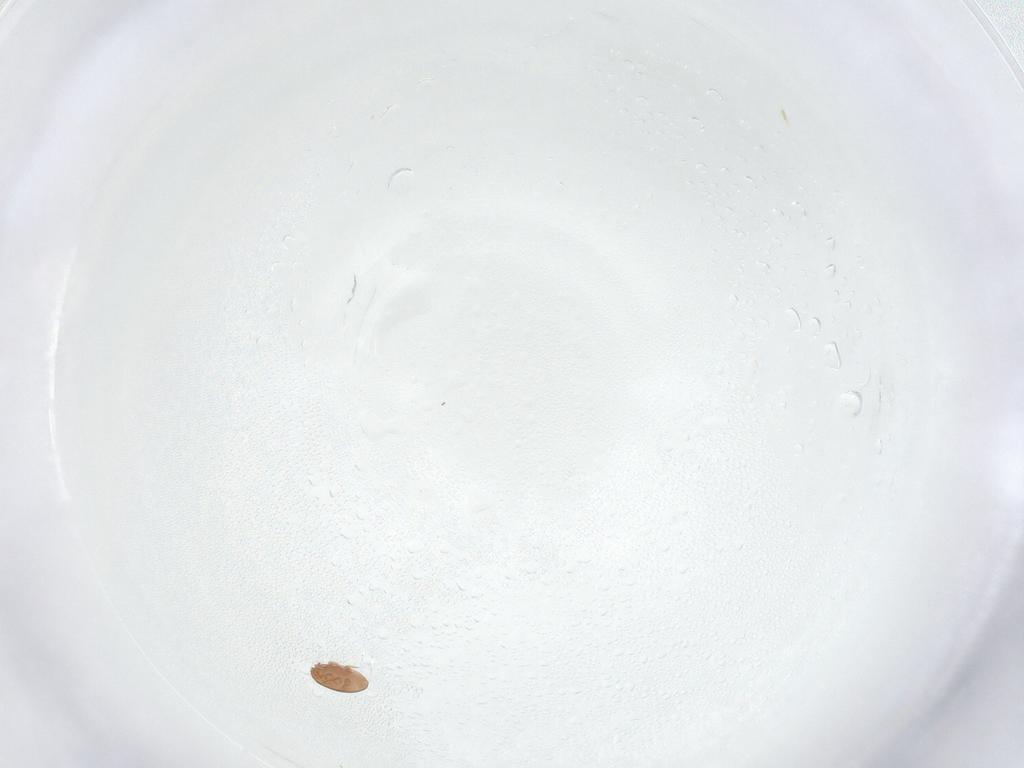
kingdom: Animalia
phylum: Arthropoda
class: Arachnida
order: Mesostigmata
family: Trematuridae
